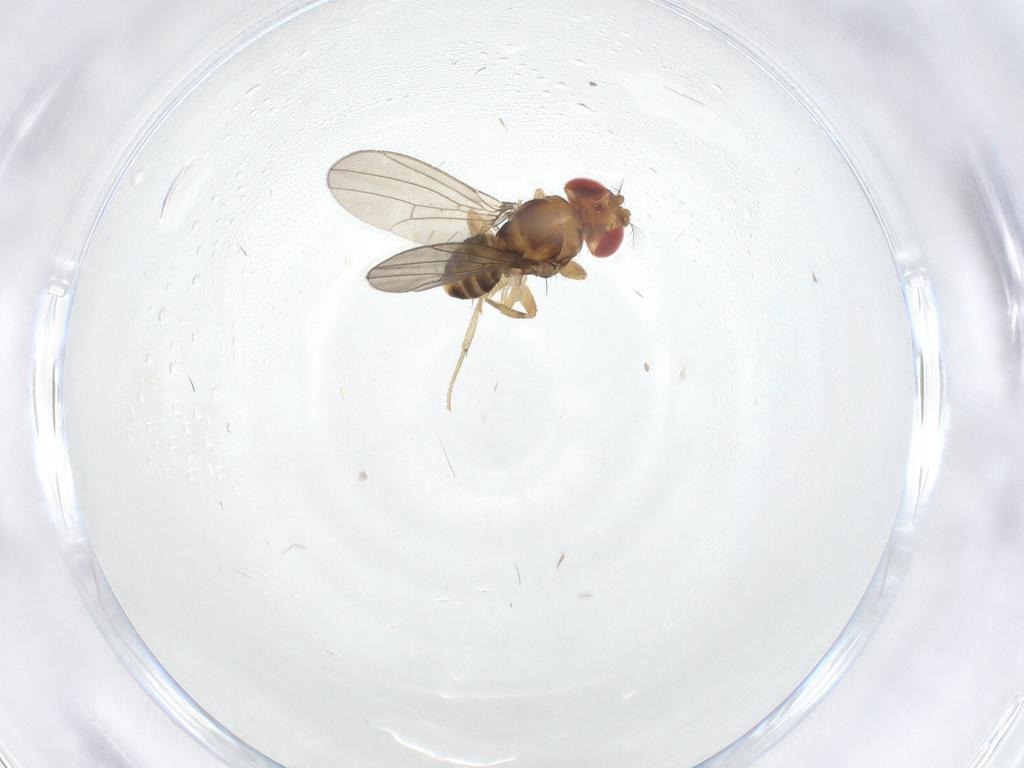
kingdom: Animalia
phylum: Arthropoda
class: Insecta
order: Diptera
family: Drosophilidae
